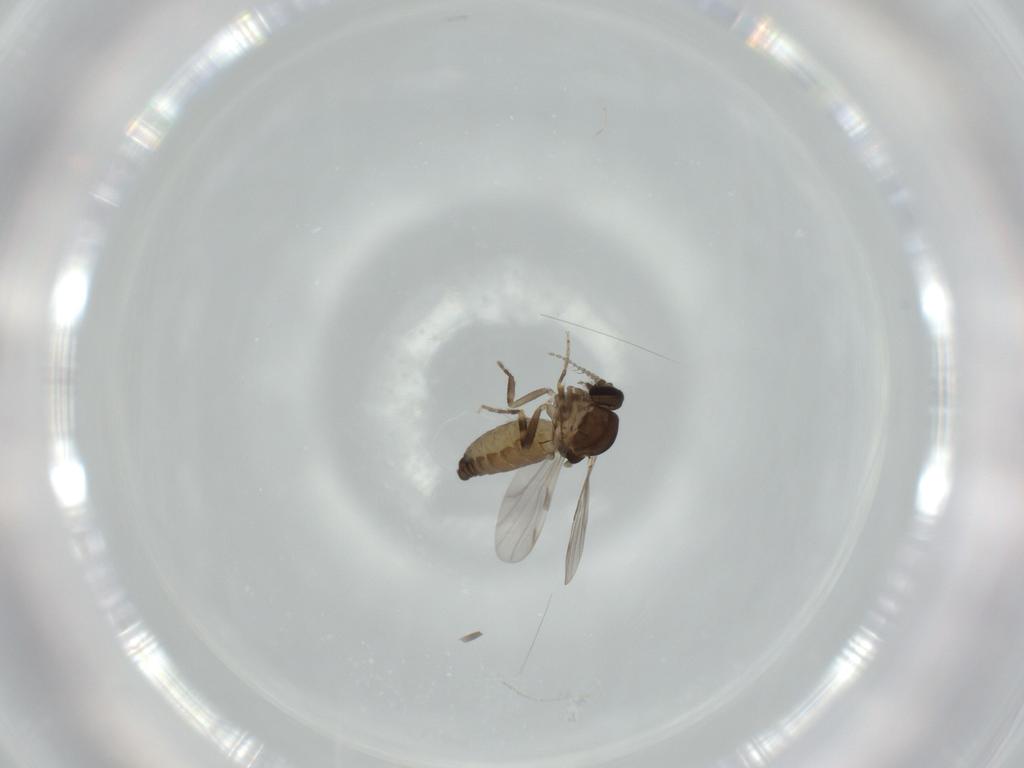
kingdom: Animalia
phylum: Arthropoda
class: Insecta
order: Diptera
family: Ceratopogonidae
